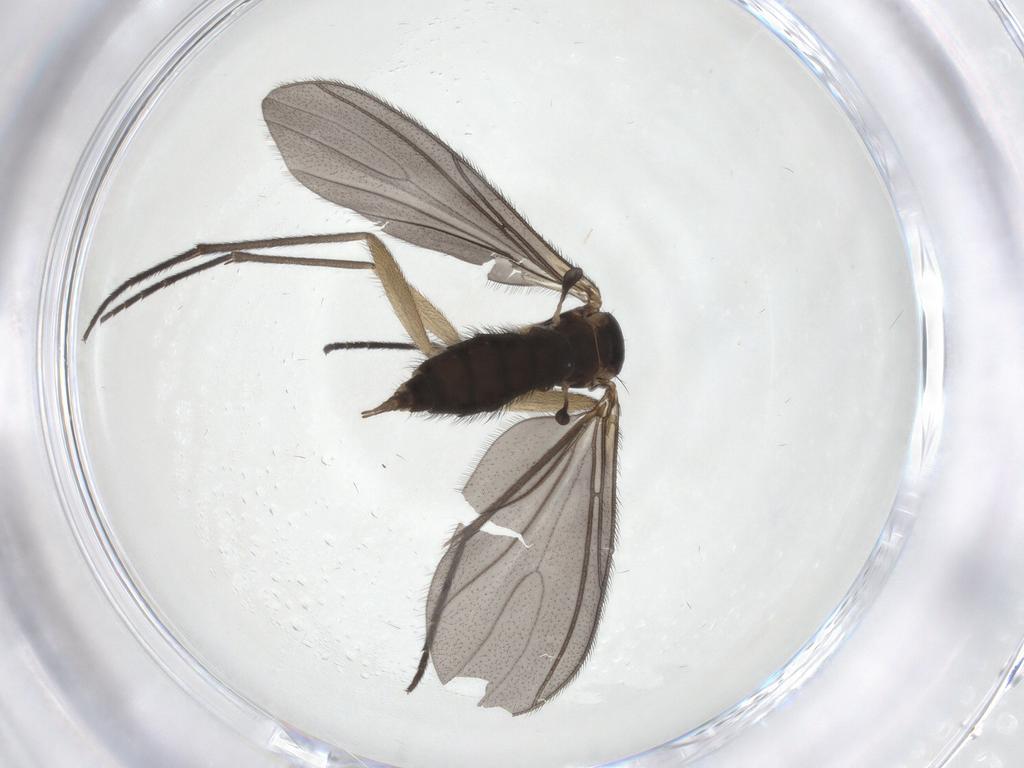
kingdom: Animalia
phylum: Arthropoda
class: Insecta
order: Diptera
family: Sciaridae
